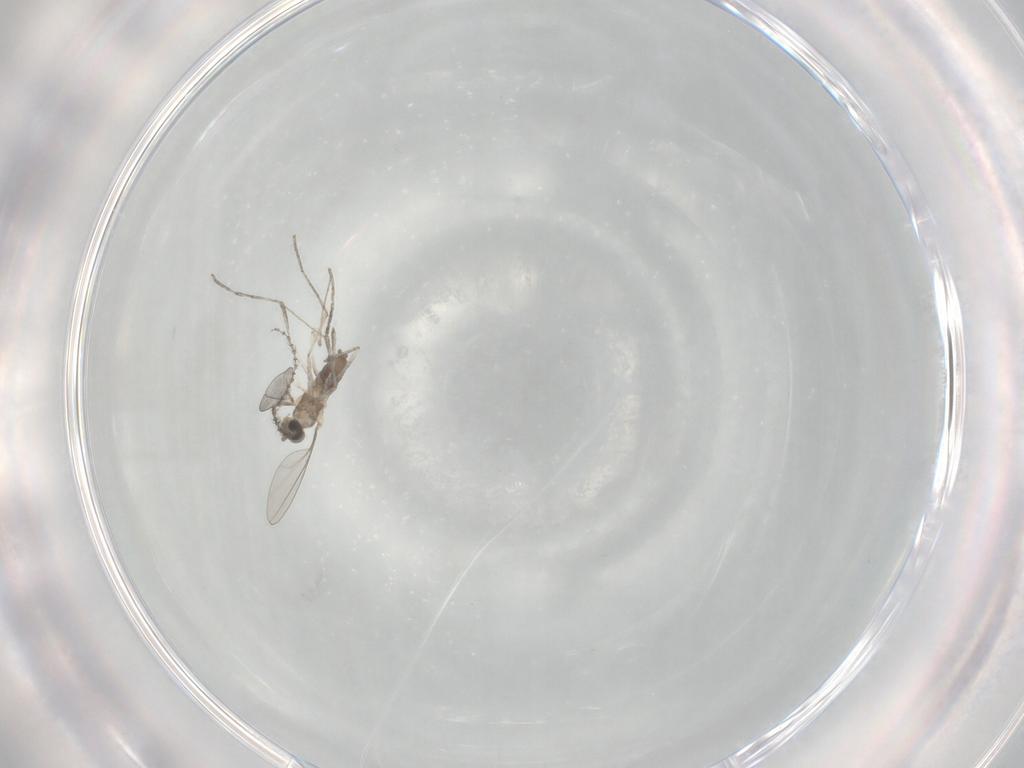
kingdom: Animalia
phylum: Arthropoda
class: Insecta
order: Diptera
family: Cecidomyiidae
